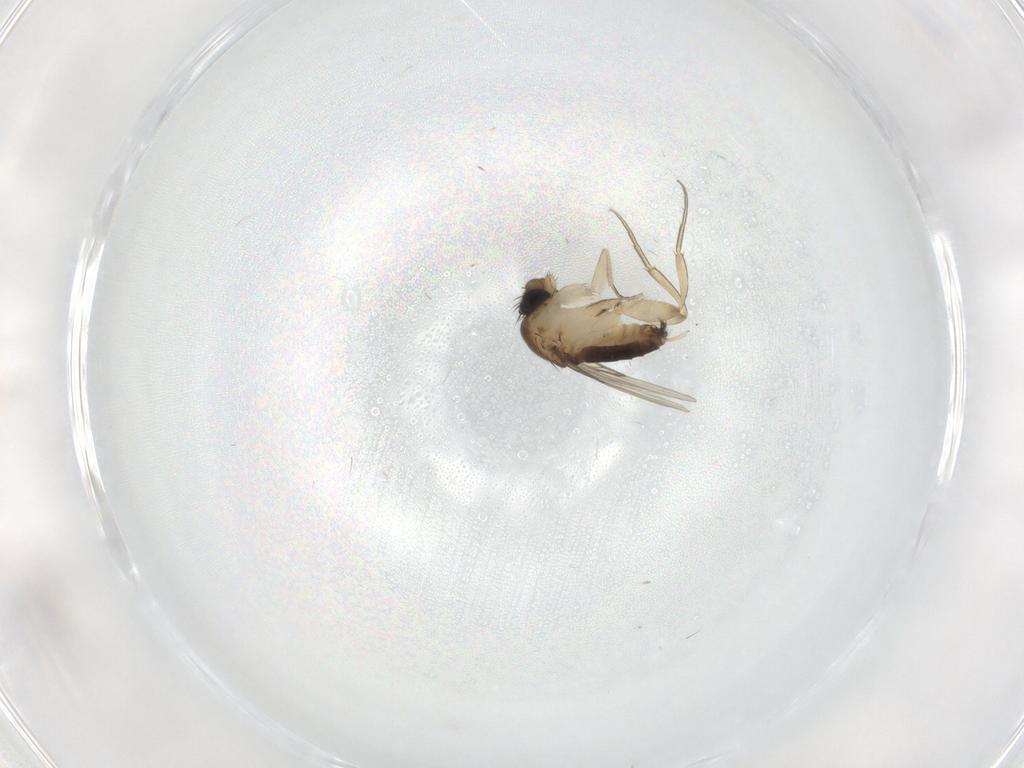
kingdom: Animalia
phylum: Arthropoda
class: Insecta
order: Diptera
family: Phoridae
